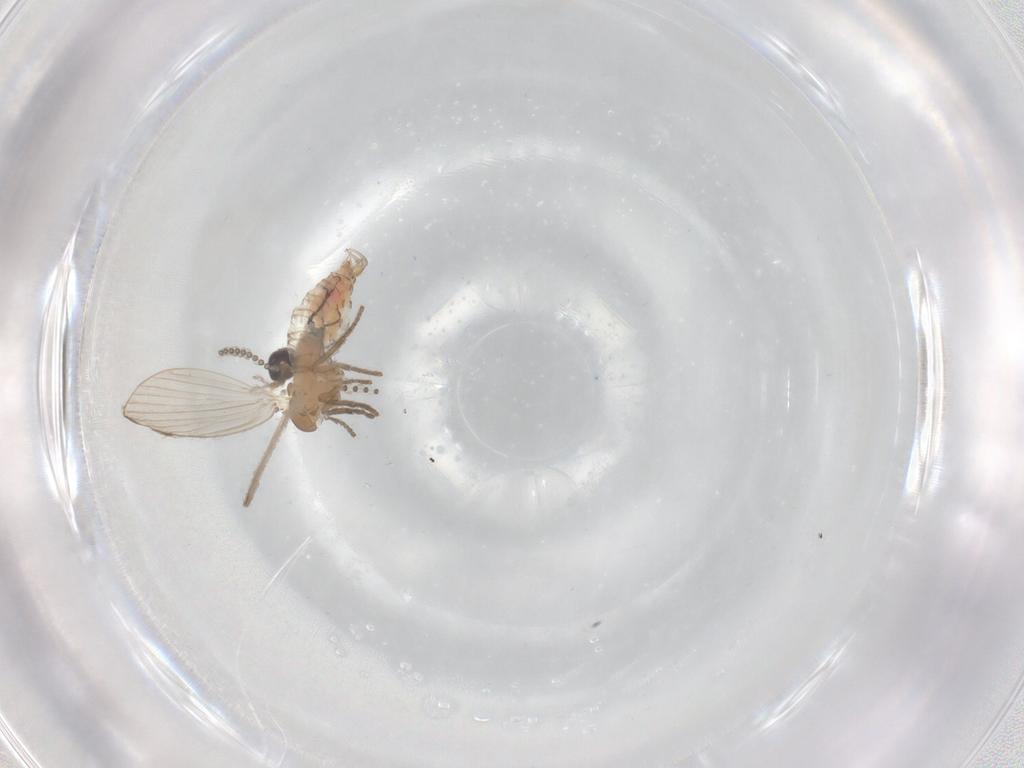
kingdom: Animalia
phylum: Arthropoda
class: Insecta
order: Diptera
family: Psychodidae
